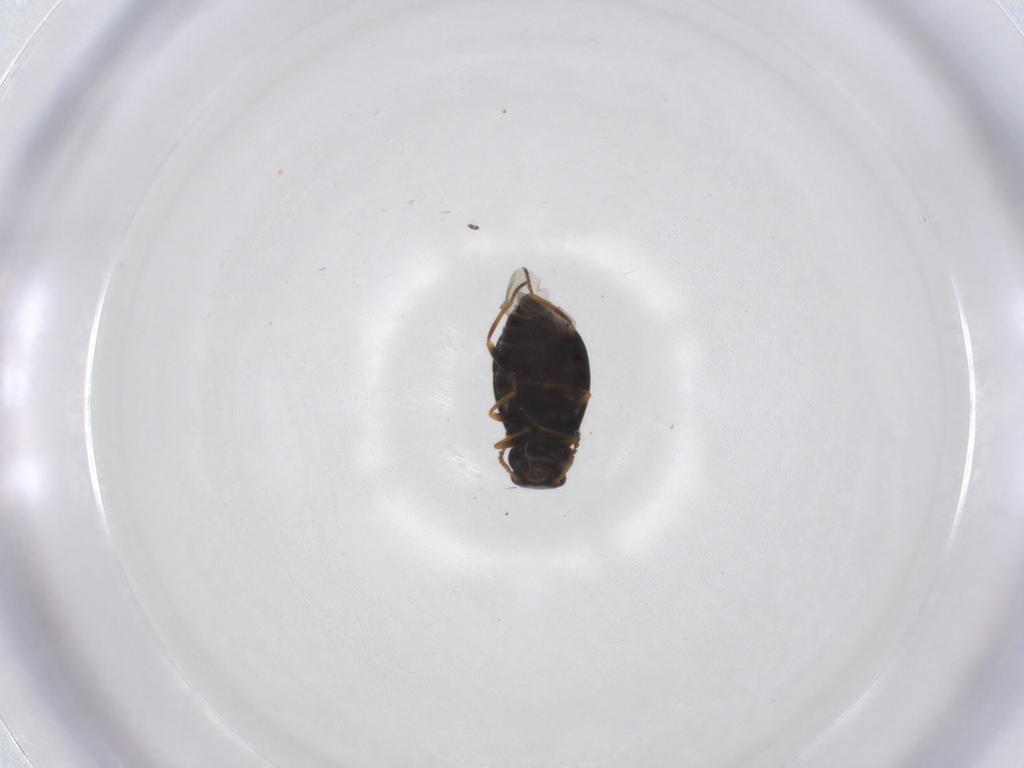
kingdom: Animalia
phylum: Arthropoda
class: Insecta
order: Coleoptera
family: Melyridae
